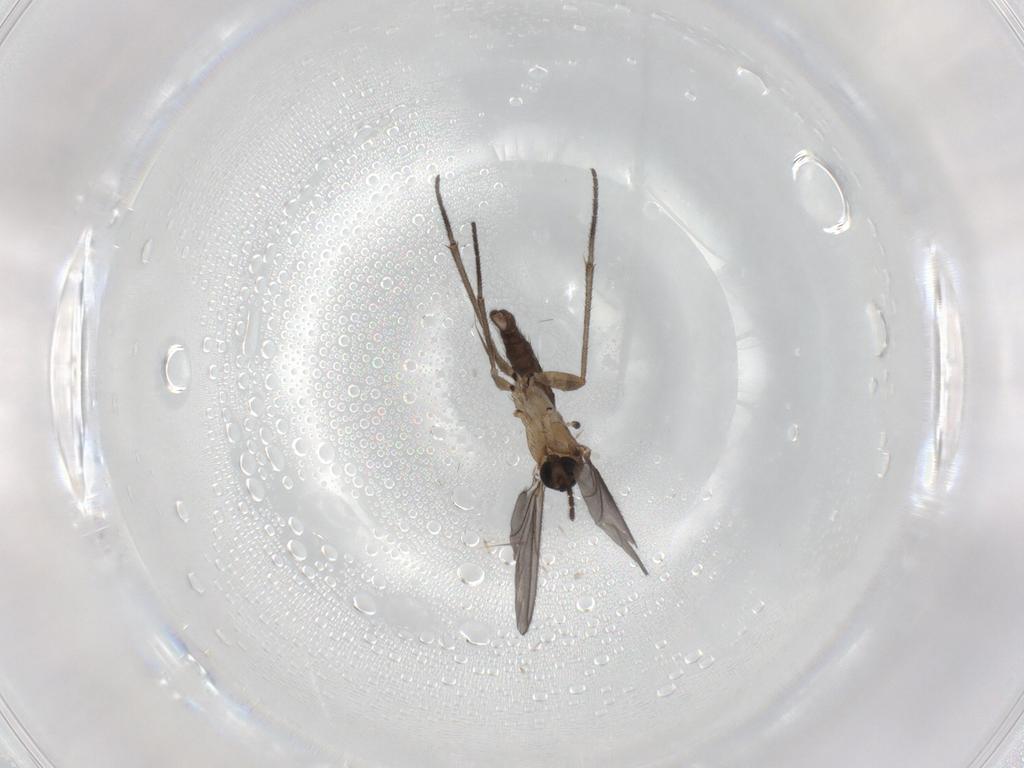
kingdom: Animalia
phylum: Arthropoda
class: Insecta
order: Diptera
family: Sciaridae
